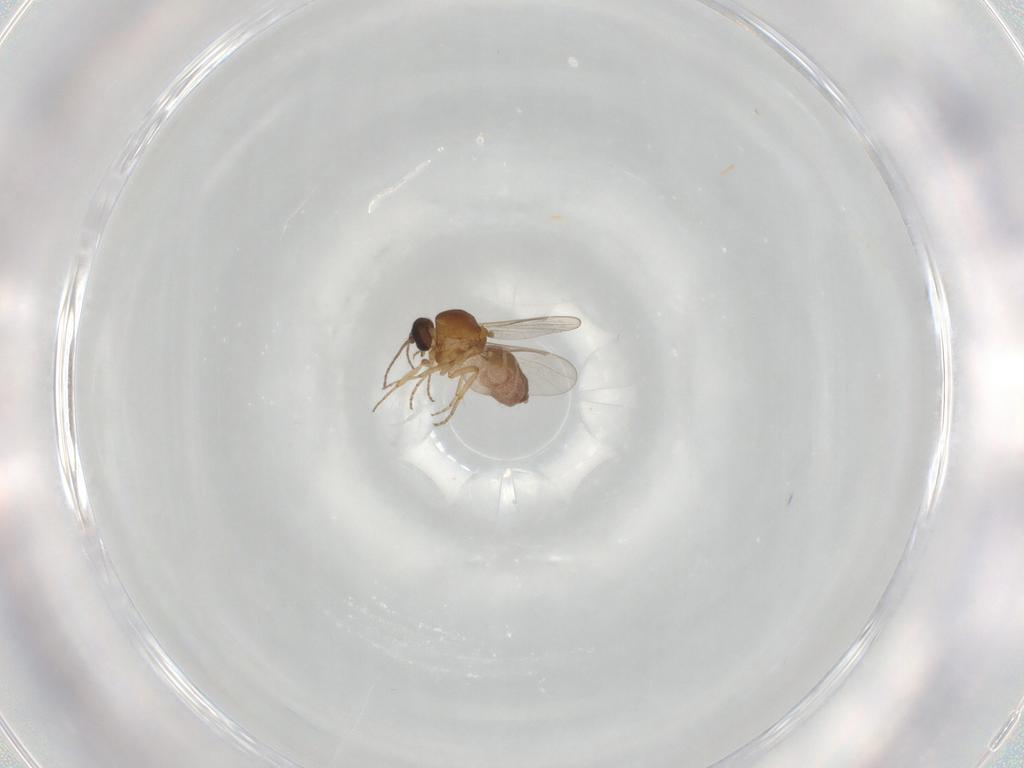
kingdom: Animalia
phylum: Arthropoda
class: Insecta
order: Diptera
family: Ceratopogonidae
